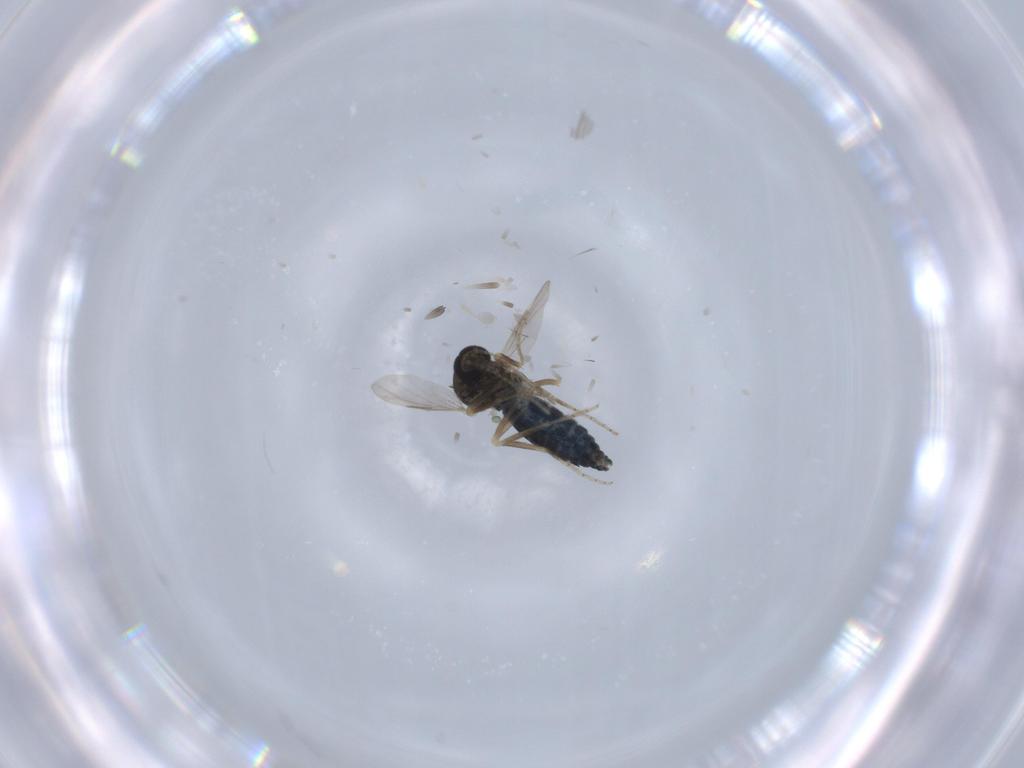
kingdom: Animalia
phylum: Arthropoda
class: Insecta
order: Diptera
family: Ceratopogonidae
